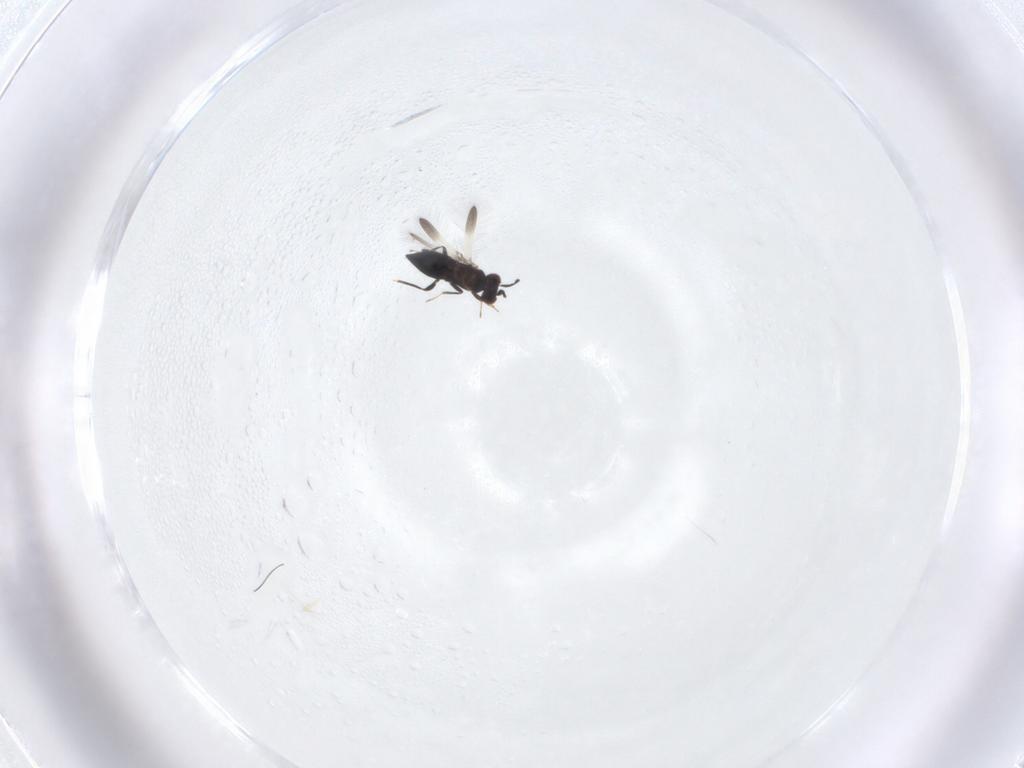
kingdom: Animalia
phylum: Arthropoda
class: Insecta
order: Hymenoptera
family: Mymaridae
